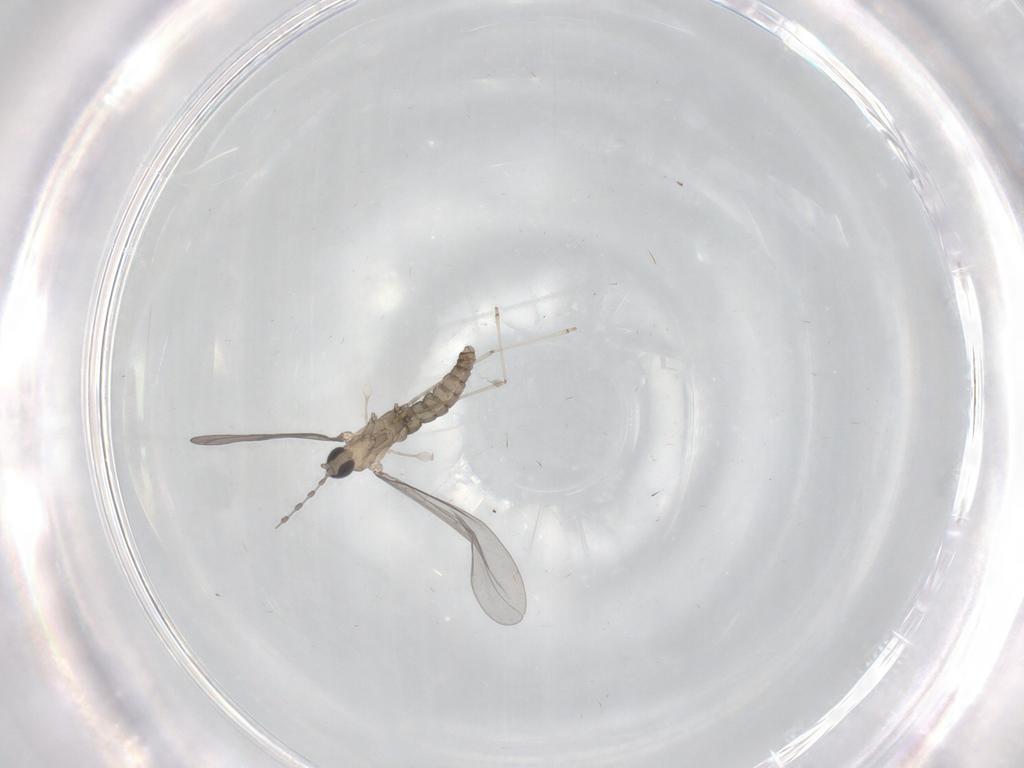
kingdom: Animalia
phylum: Arthropoda
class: Insecta
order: Diptera
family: Cecidomyiidae
